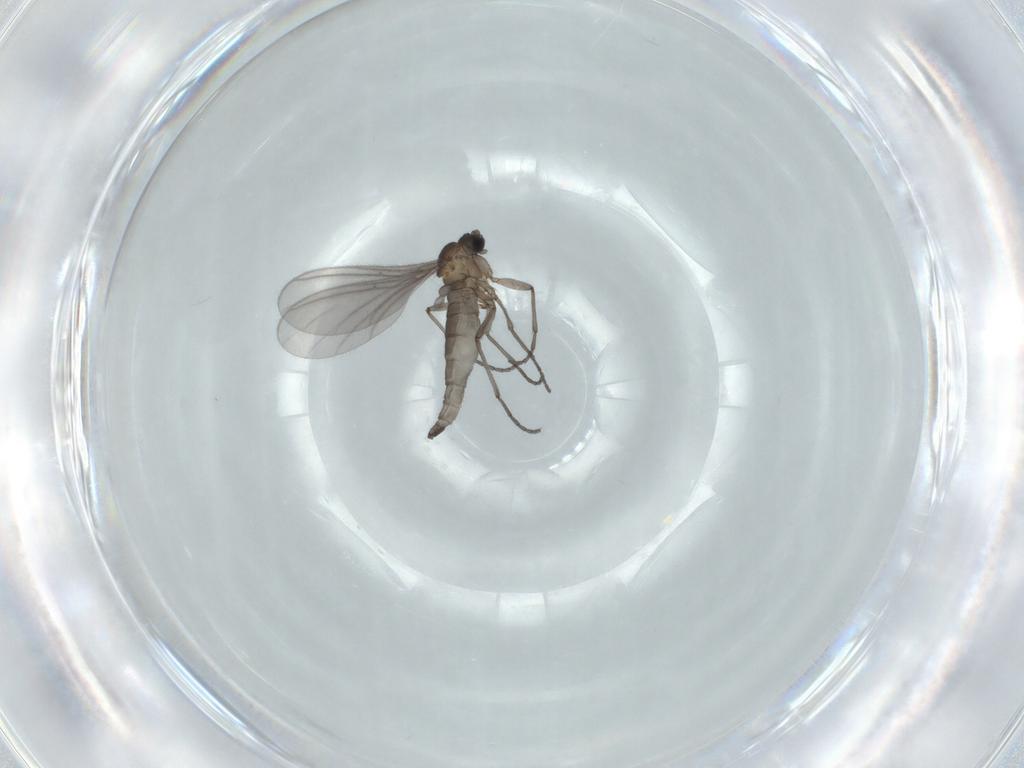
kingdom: Animalia
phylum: Arthropoda
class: Insecta
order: Diptera
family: Sciaridae
